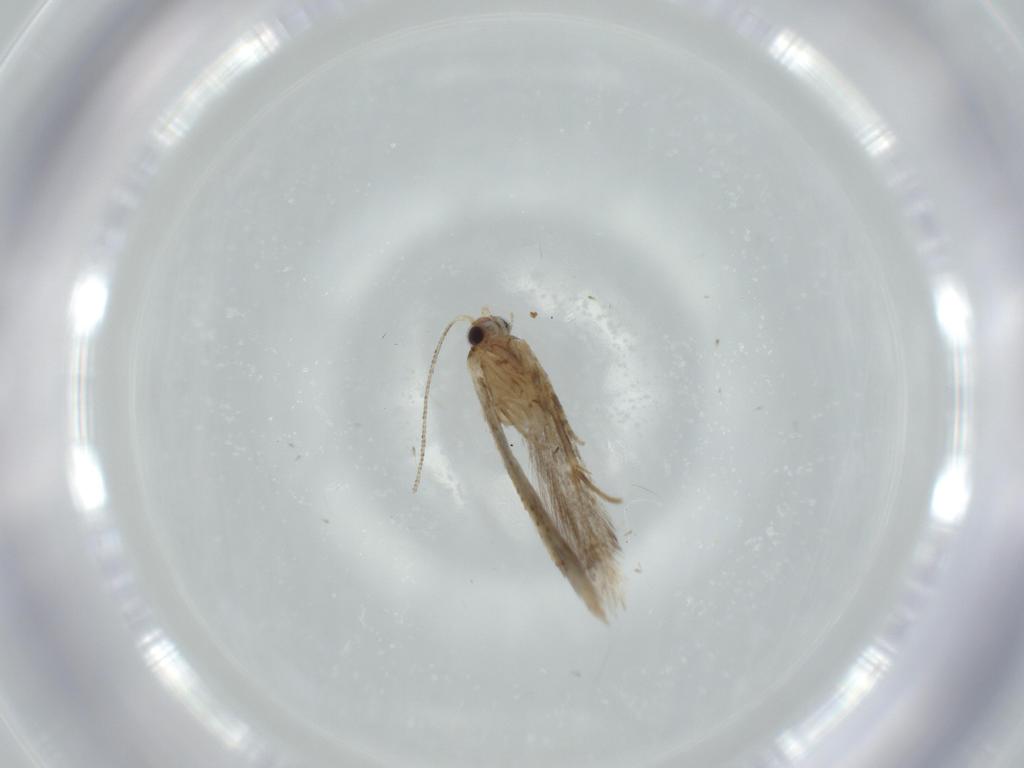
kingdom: Animalia
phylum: Arthropoda
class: Insecta
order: Lepidoptera
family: Tineidae
